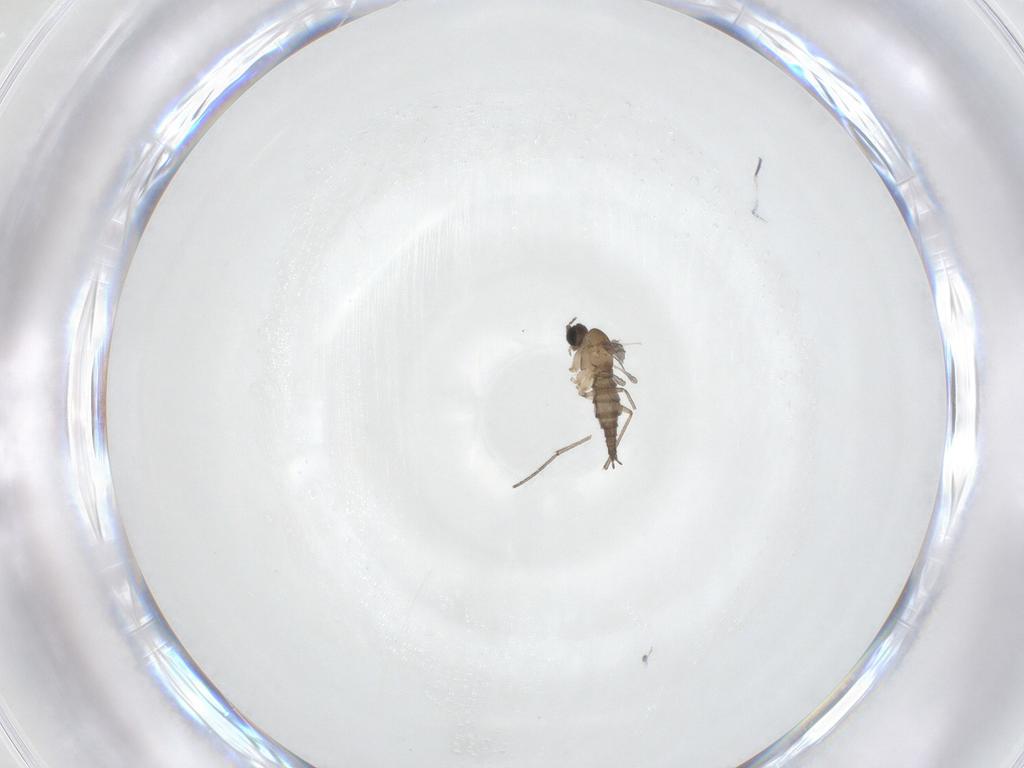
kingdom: Animalia
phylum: Arthropoda
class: Insecta
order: Diptera
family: Sciaridae
